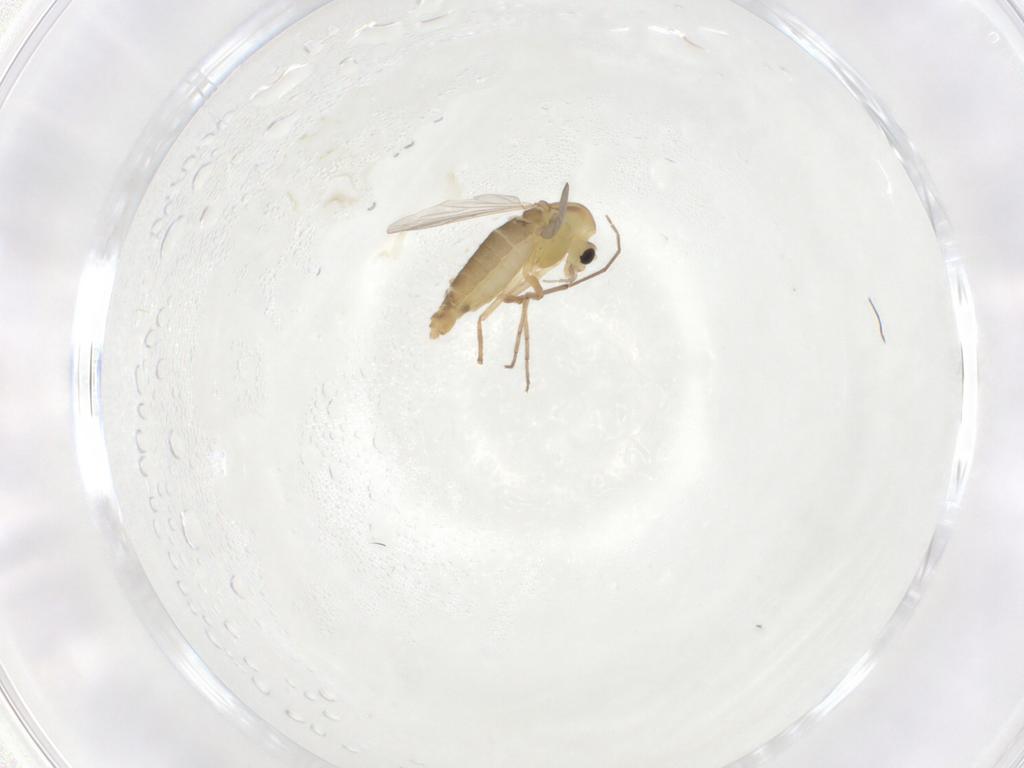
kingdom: Animalia
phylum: Arthropoda
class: Insecta
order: Diptera
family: Chironomidae
